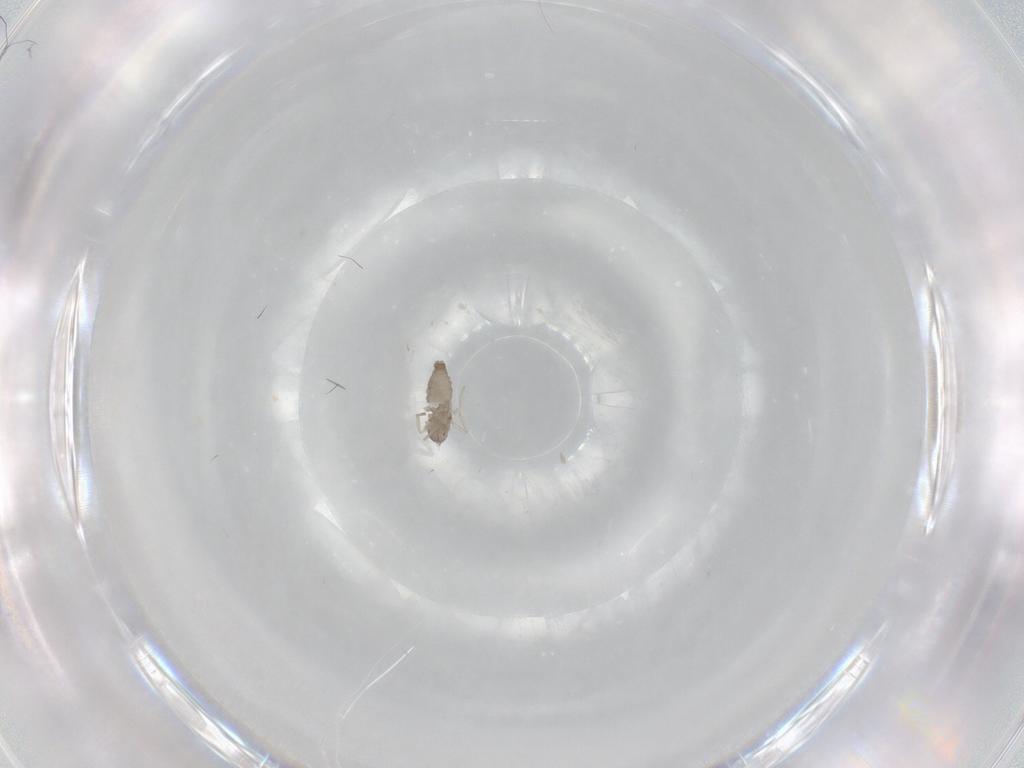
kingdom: Animalia
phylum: Arthropoda
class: Insecta
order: Diptera
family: Cecidomyiidae
